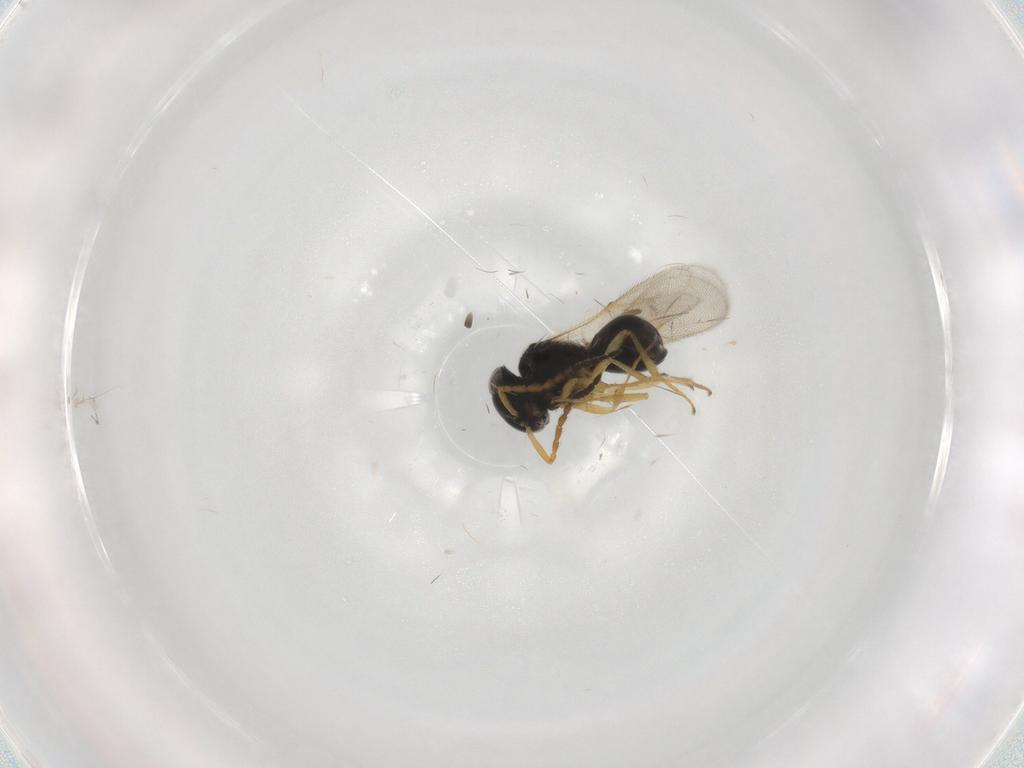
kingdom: Animalia
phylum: Arthropoda
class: Insecta
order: Hymenoptera
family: Scelionidae
